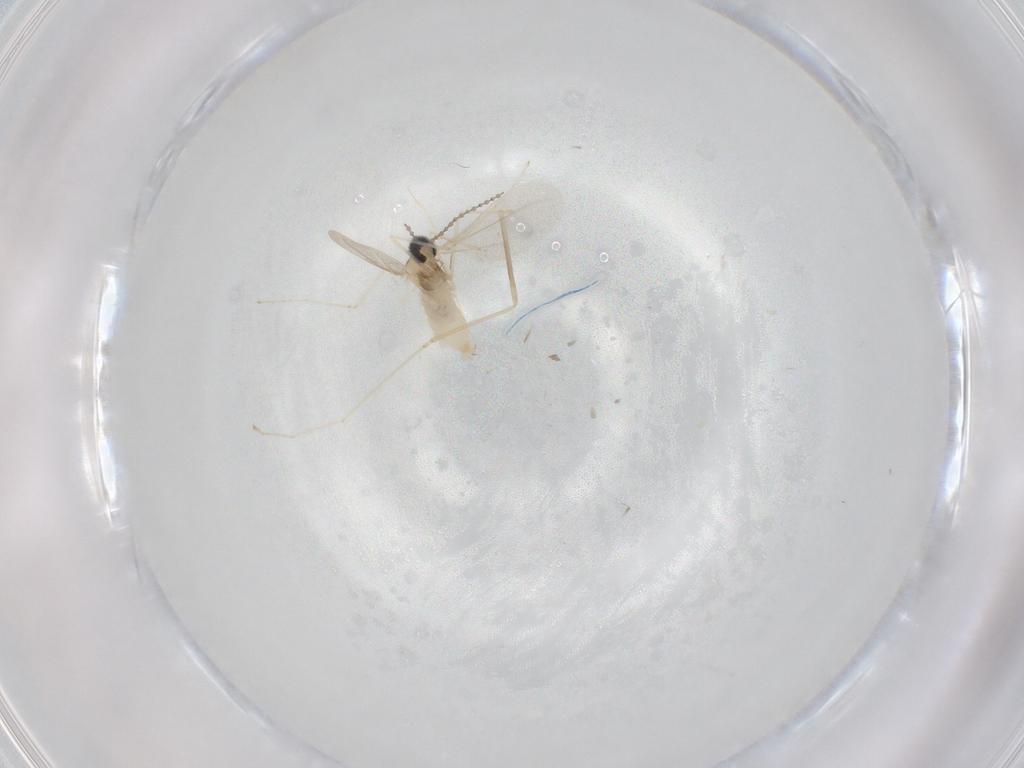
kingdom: Animalia
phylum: Arthropoda
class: Insecta
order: Diptera
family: Cecidomyiidae
